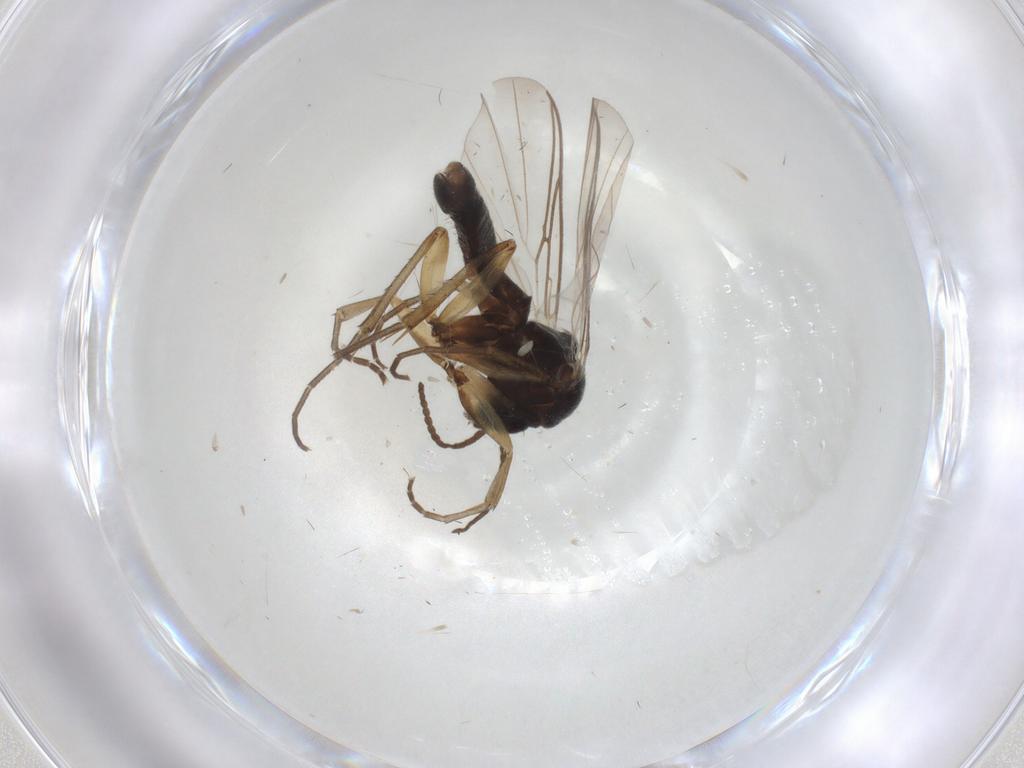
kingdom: Animalia
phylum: Arthropoda
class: Insecta
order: Diptera
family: Mycetophilidae
